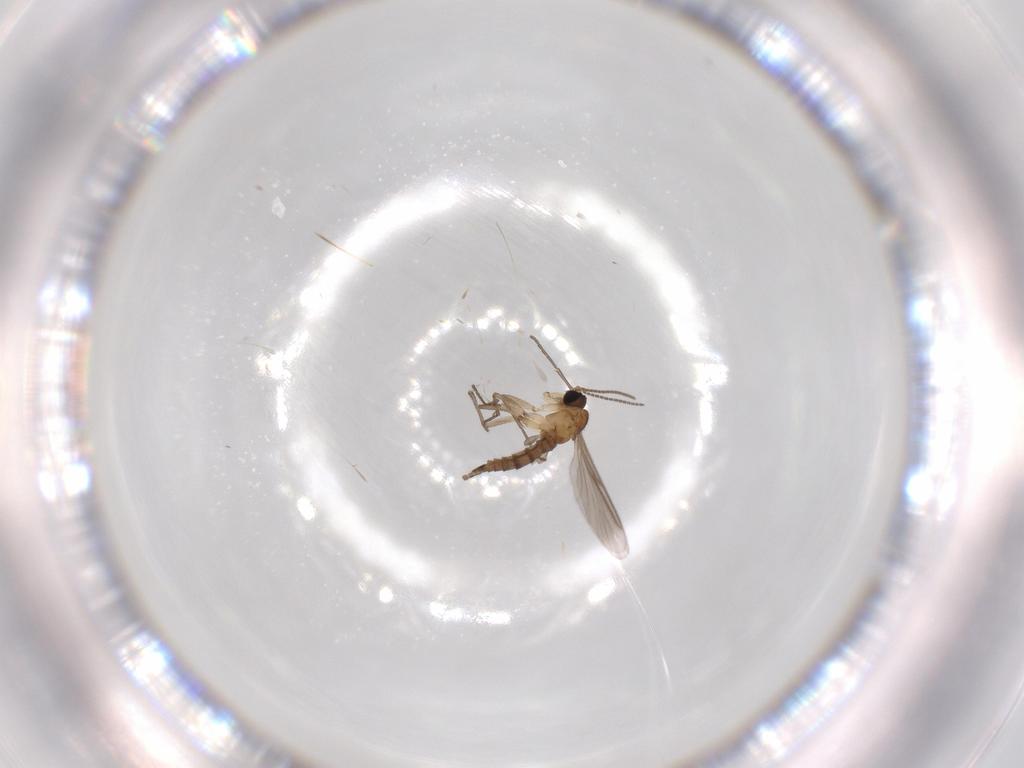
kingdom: Animalia
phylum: Arthropoda
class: Insecta
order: Diptera
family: Sciaridae
